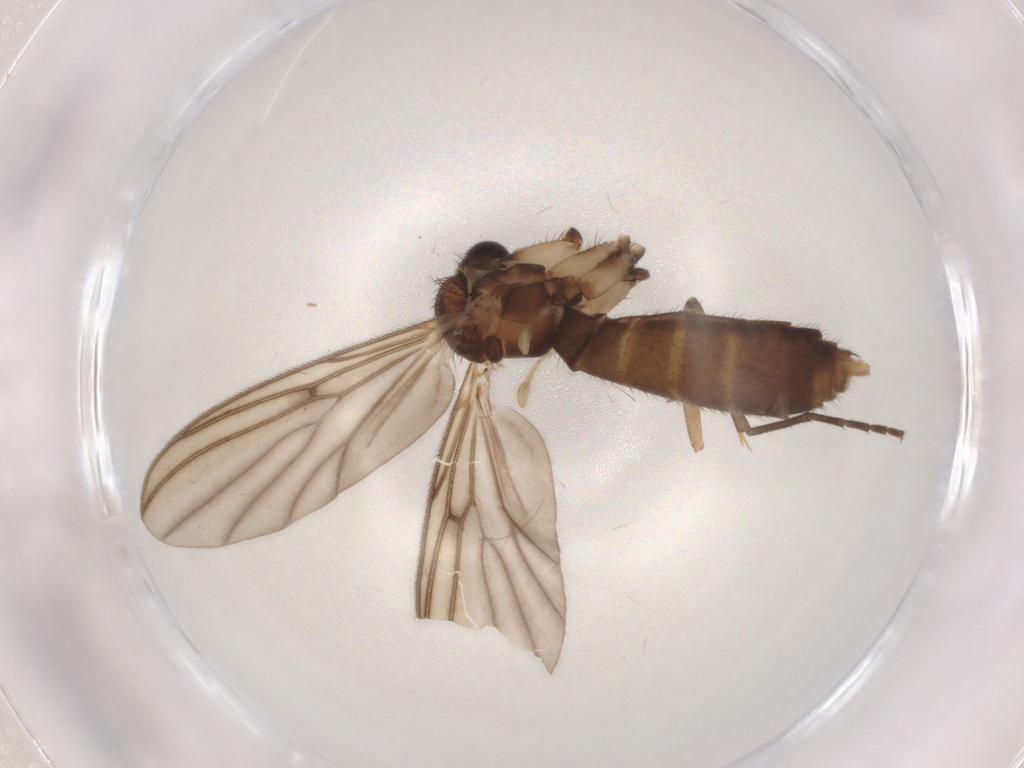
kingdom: Animalia
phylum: Arthropoda
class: Insecta
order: Diptera
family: Mycetophilidae
